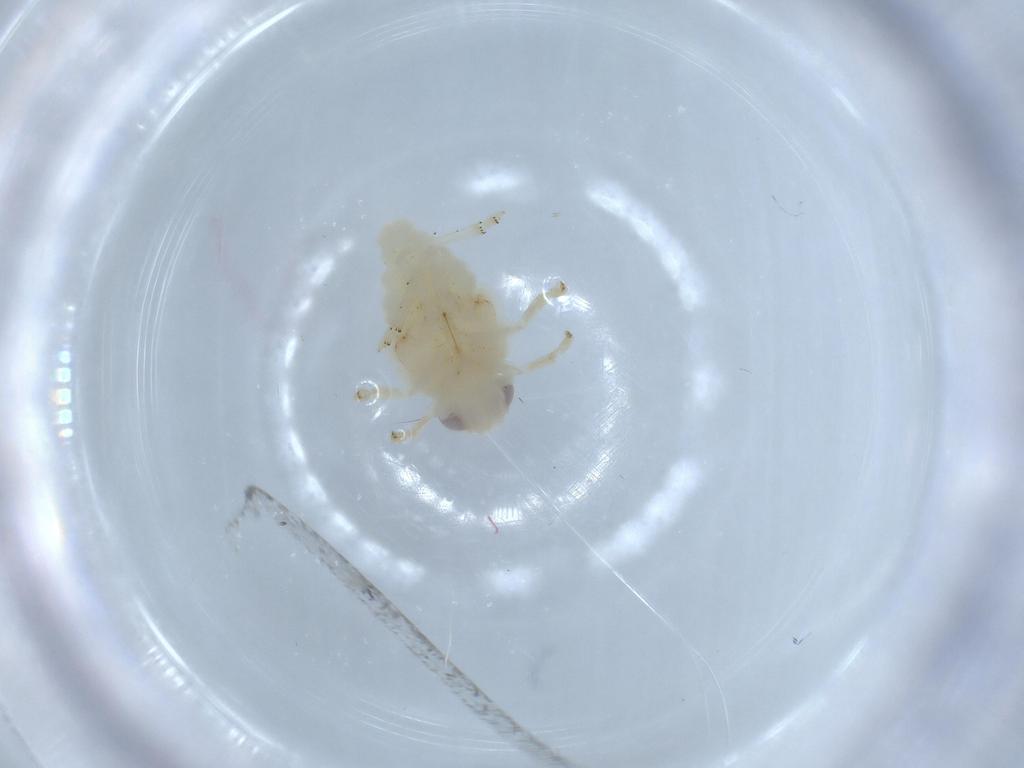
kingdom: Animalia
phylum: Arthropoda
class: Insecta
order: Hemiptera
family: Nogodinidae
